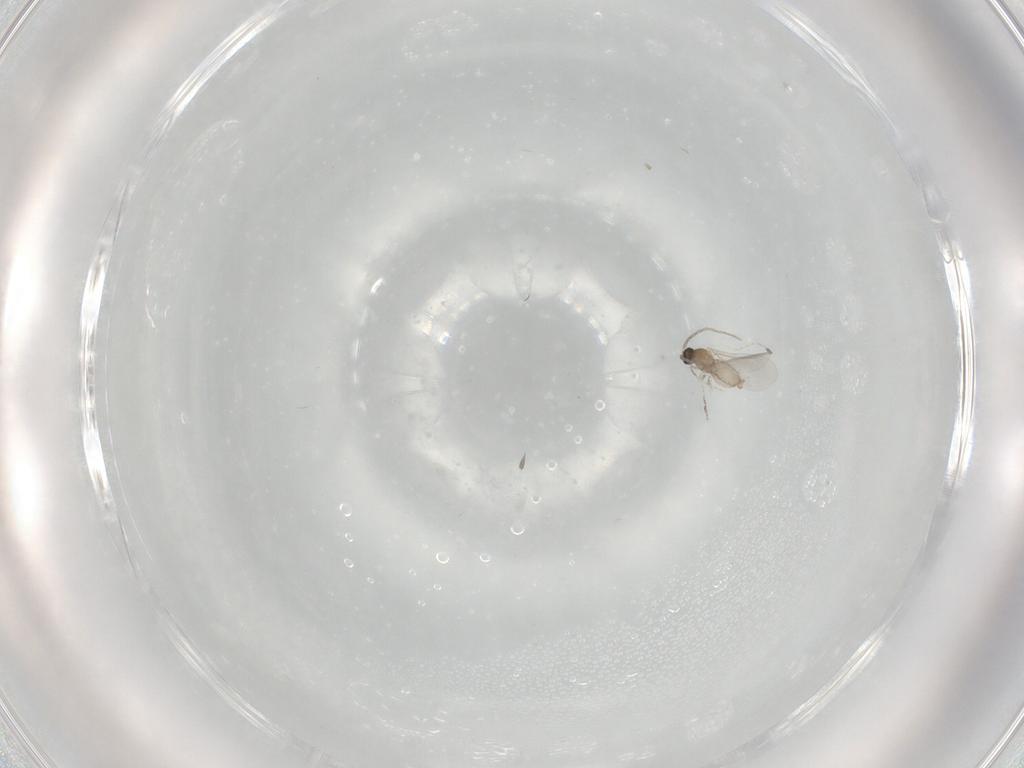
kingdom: Animalia
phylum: Arthropoda
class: Insecta
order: Diptera
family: Cecidomyiidae
